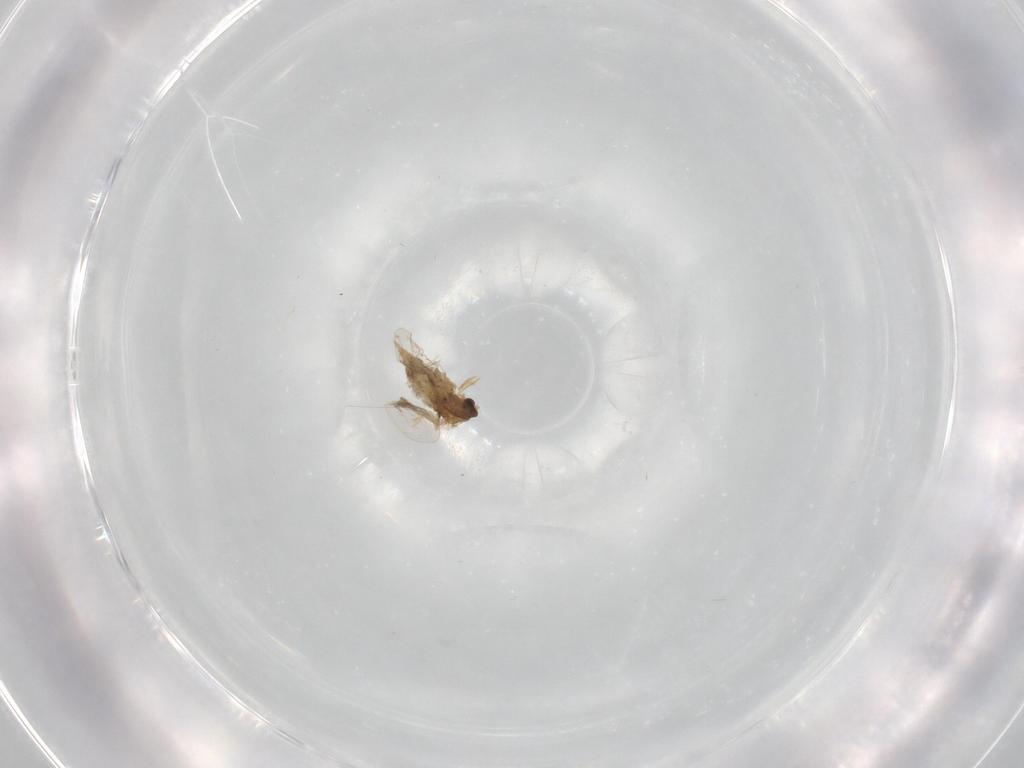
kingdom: Animalia
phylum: Arthropoda
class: Insecta
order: Diptera
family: Ceratopogonidae
